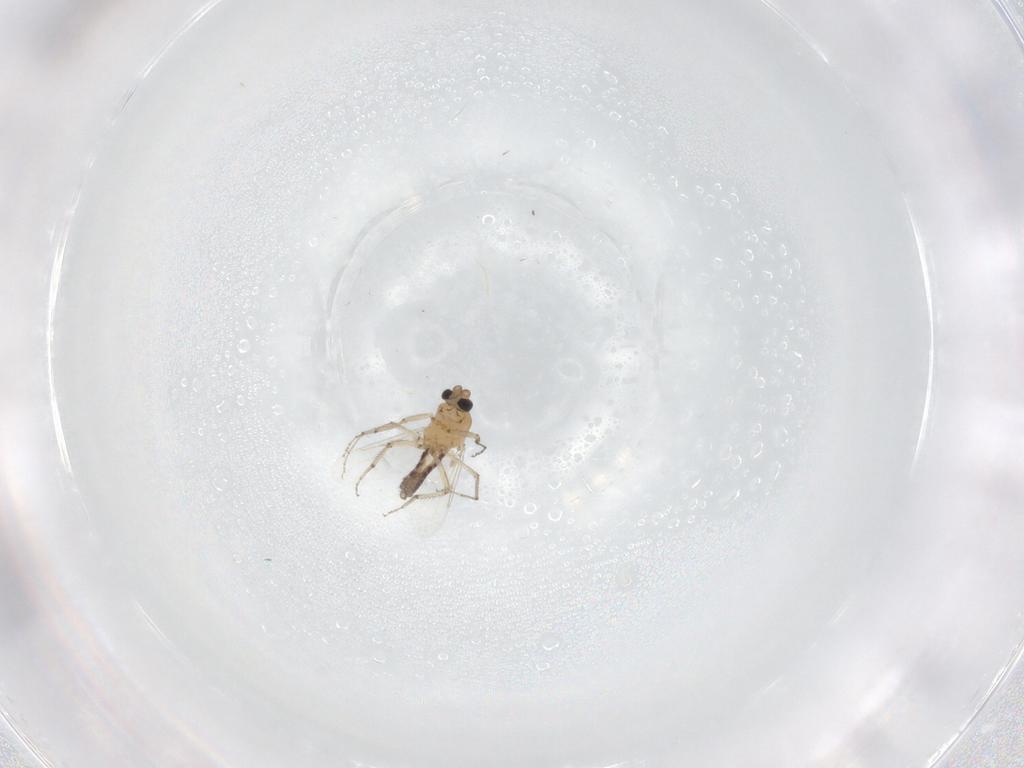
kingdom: Animalia
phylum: Arthropoda
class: Insecta
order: Diptera
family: Ceratopogonidae
